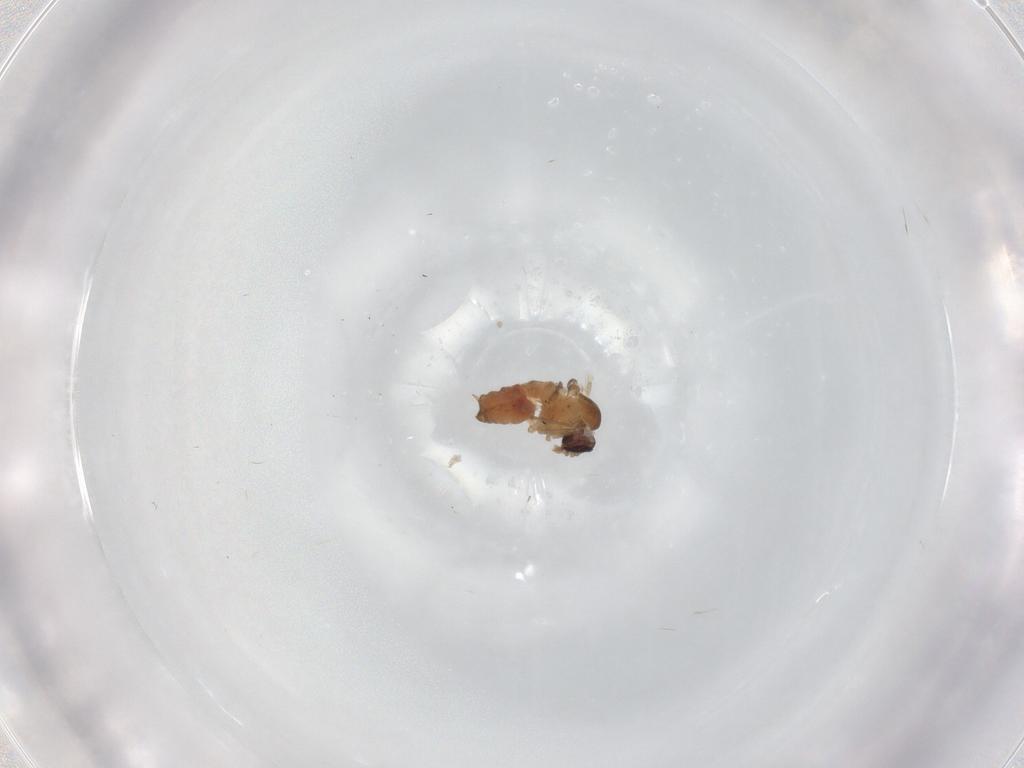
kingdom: Animalia
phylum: Arthropoda
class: Insecta
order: Diptera
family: Psychodidae
